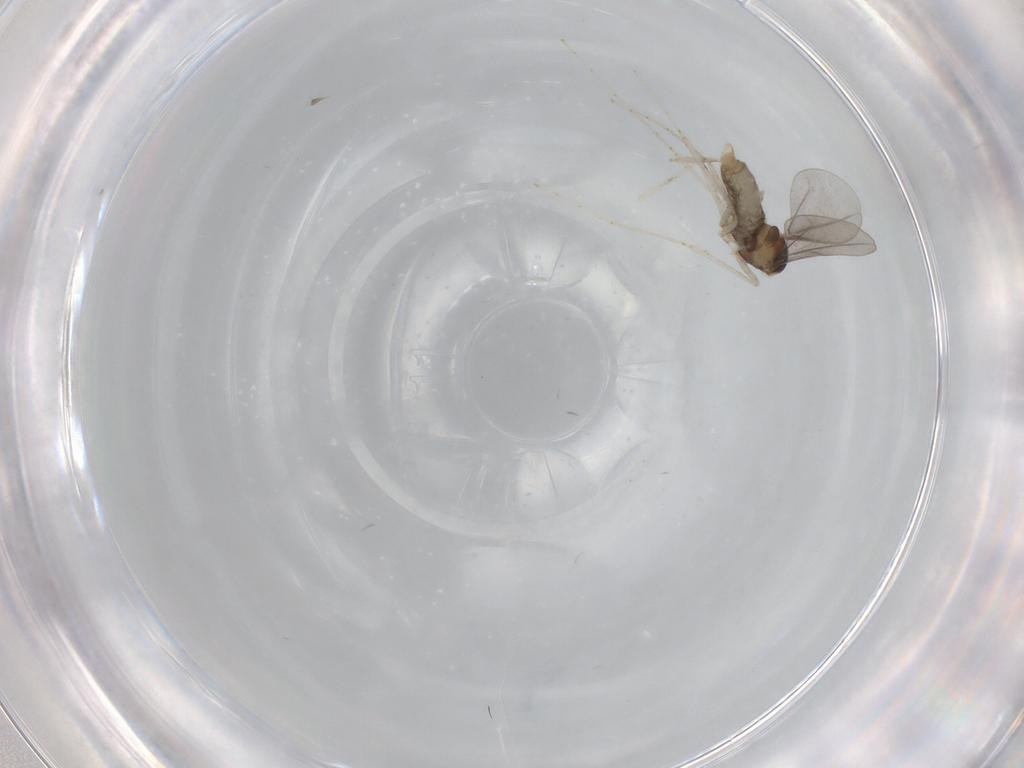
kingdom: Animalia
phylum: Arthropoda
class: Insecta
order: Diptera
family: Cecidomyiidae
